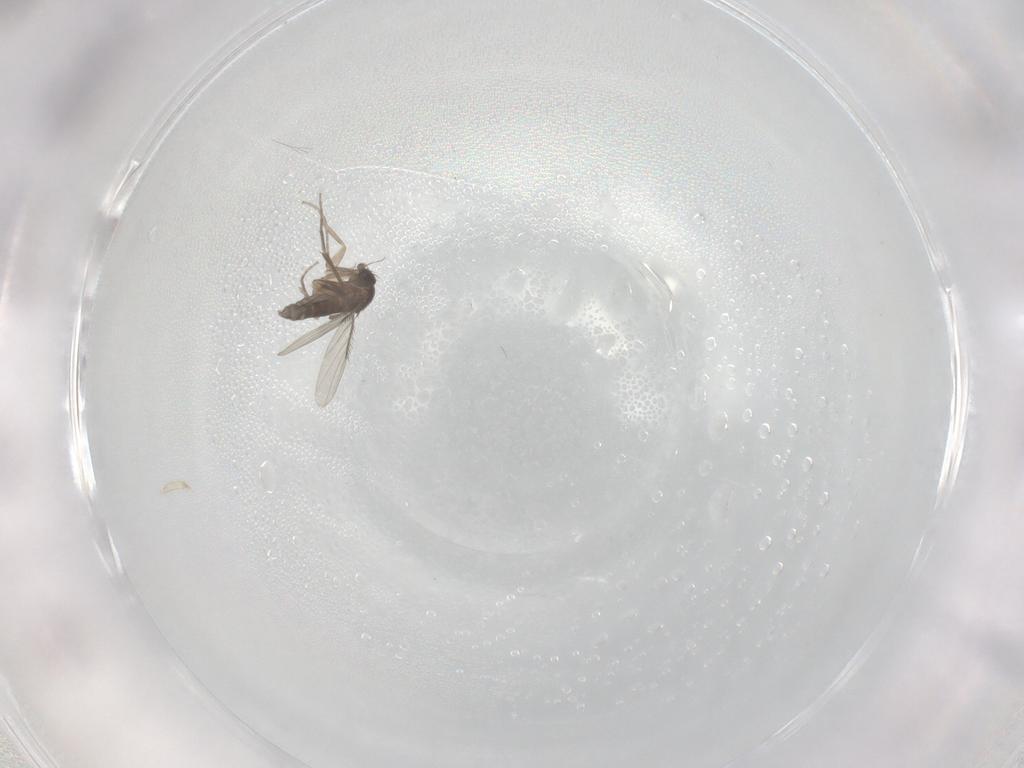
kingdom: Animalia
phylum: Arthropoda
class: Insecta
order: Diptera
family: Phoridae
